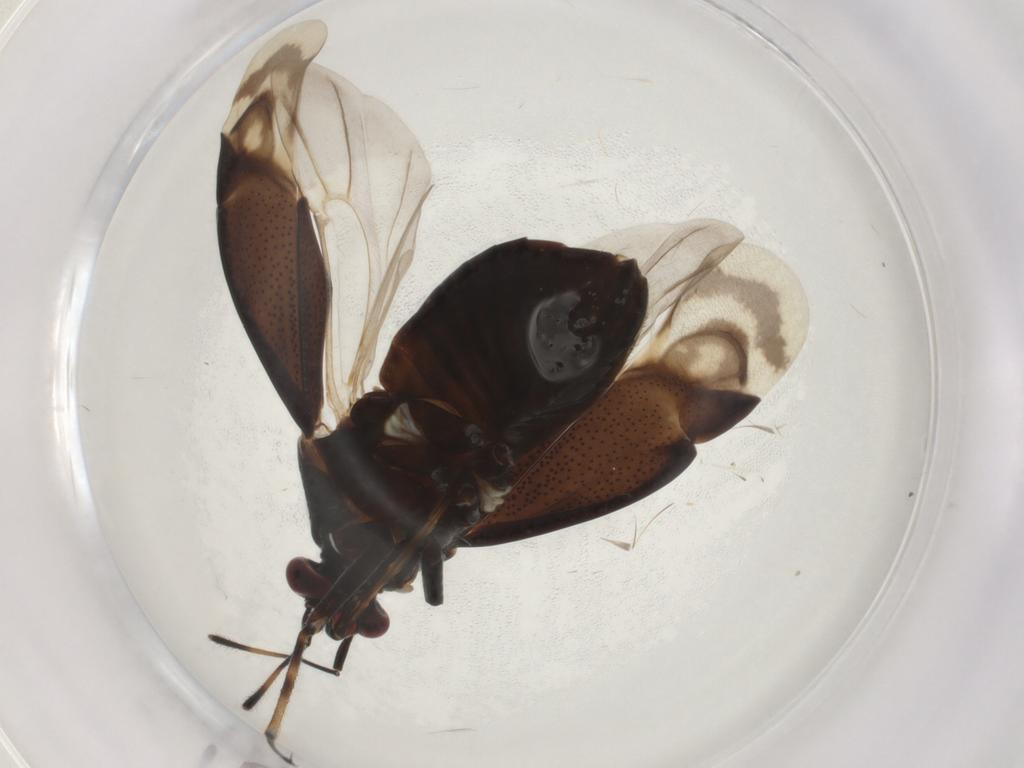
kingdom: Animalia
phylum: Arthropoda
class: Insecta
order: Hemiptera
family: Miridae
